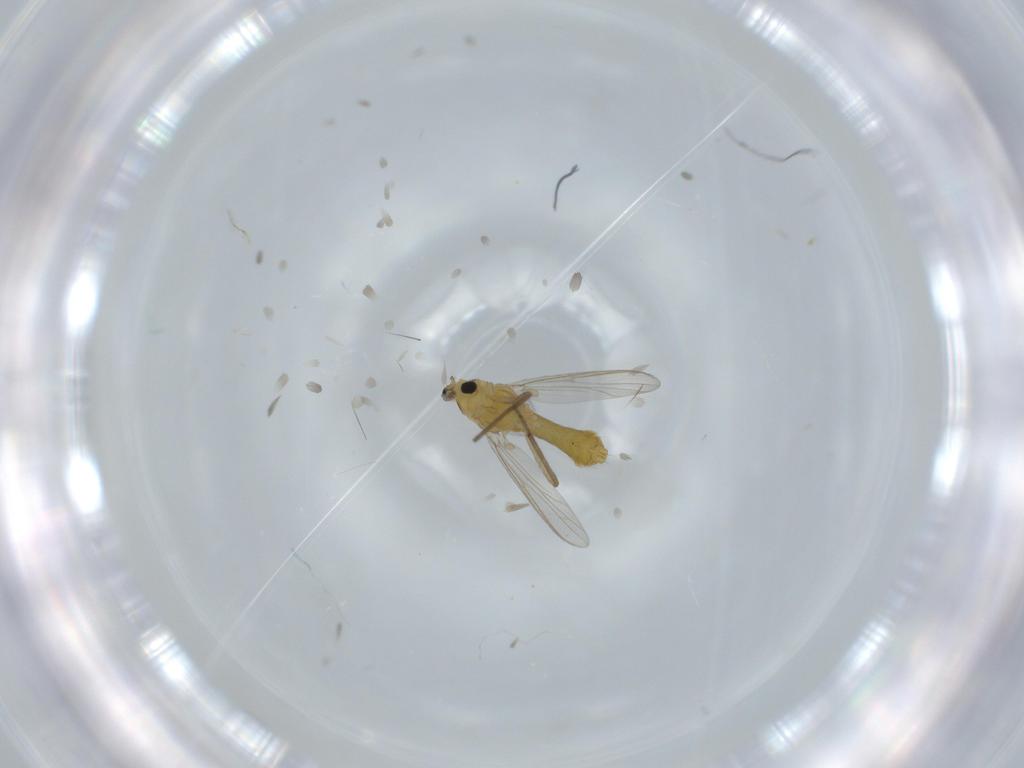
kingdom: Animalia
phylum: Arthropoda
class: Insecta
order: Diptera
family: Chironomidae
